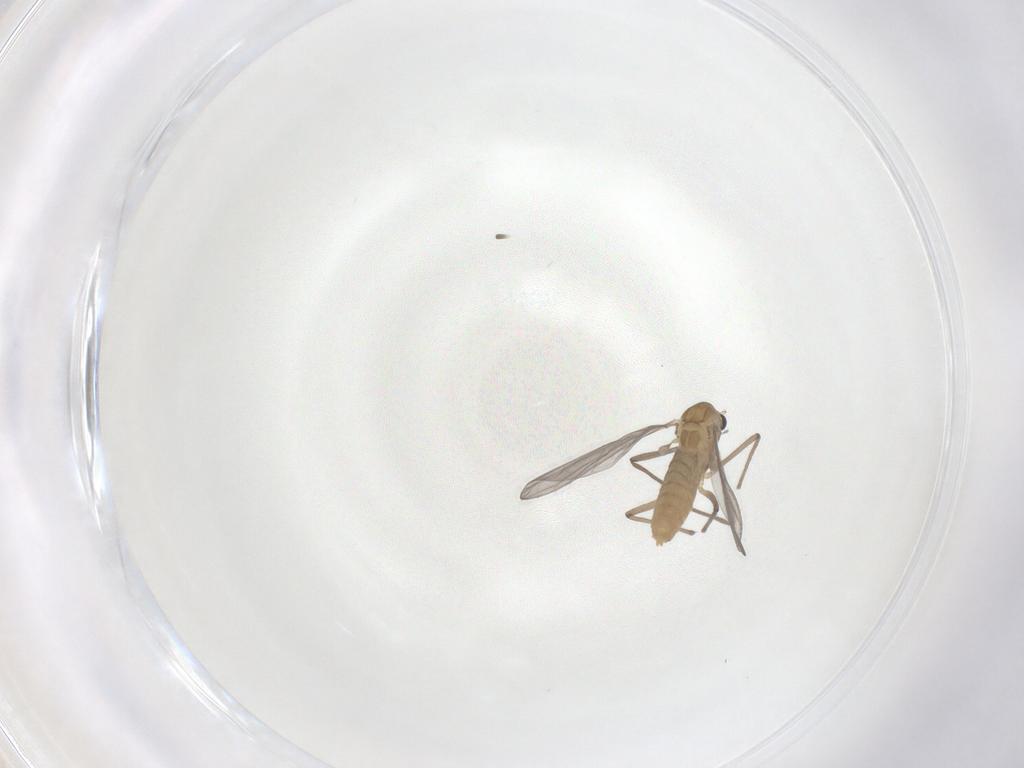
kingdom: Animalia
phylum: Arthropoda
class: Insecta
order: Diptera
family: Chironomidae
